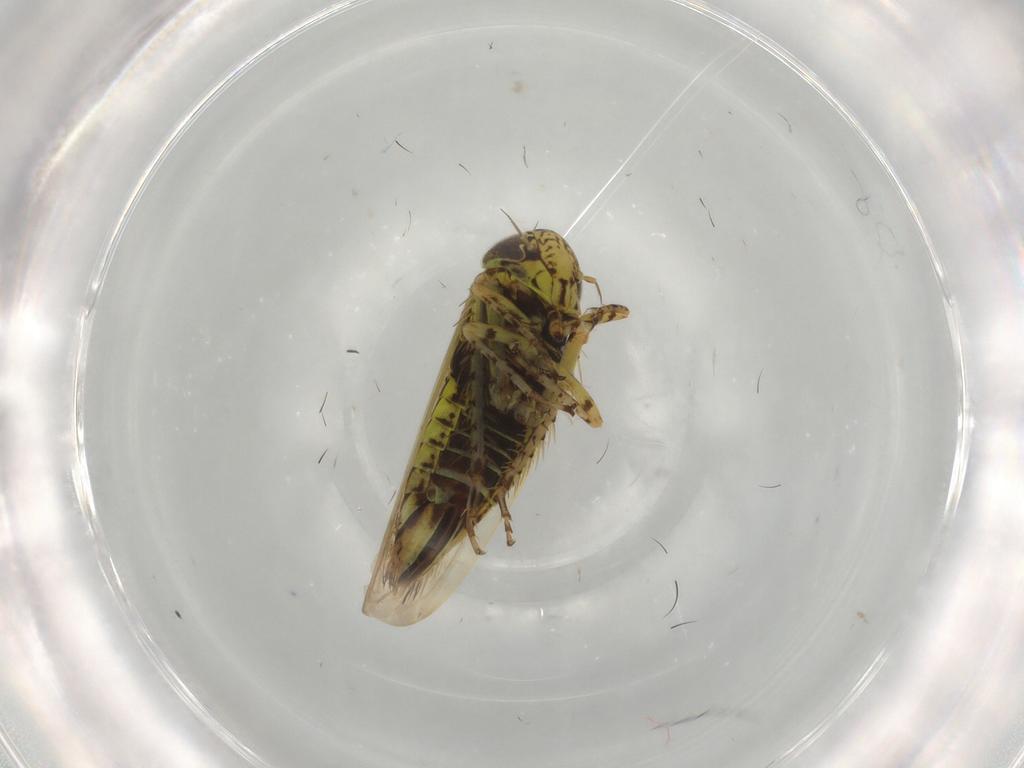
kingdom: Animalia
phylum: Arthropoda
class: Insecta
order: Hemiptera
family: Cicadellidae
